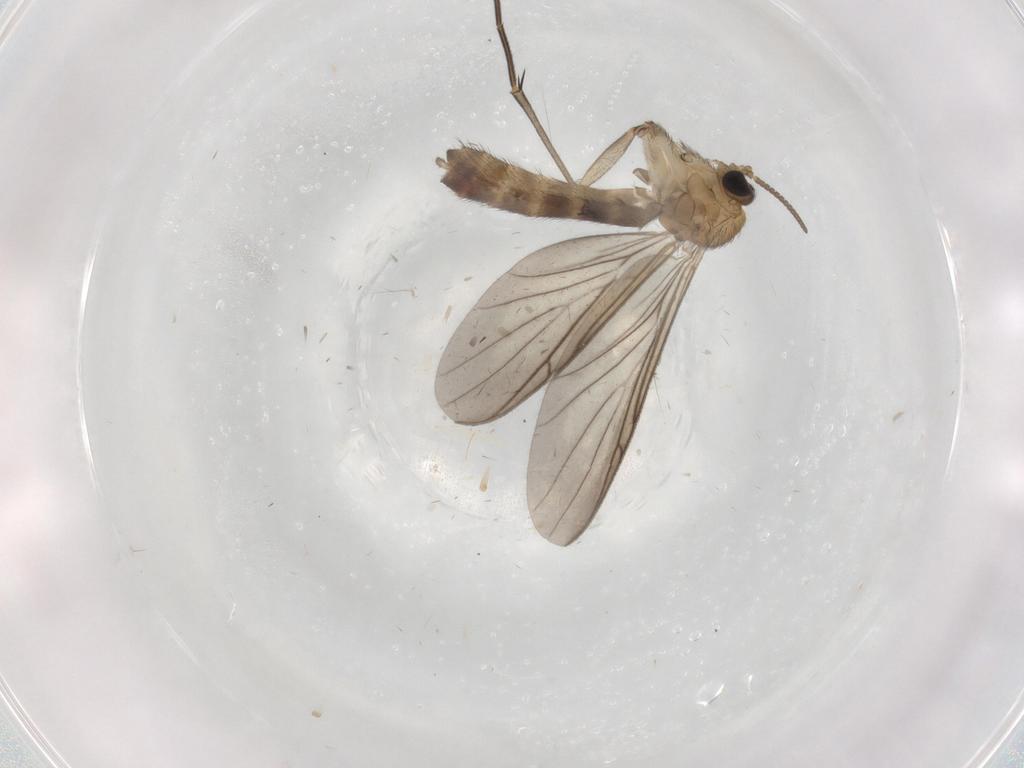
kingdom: Animalia
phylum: Arthropoda
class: Insecta
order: Diptera
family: Keroplatidae
